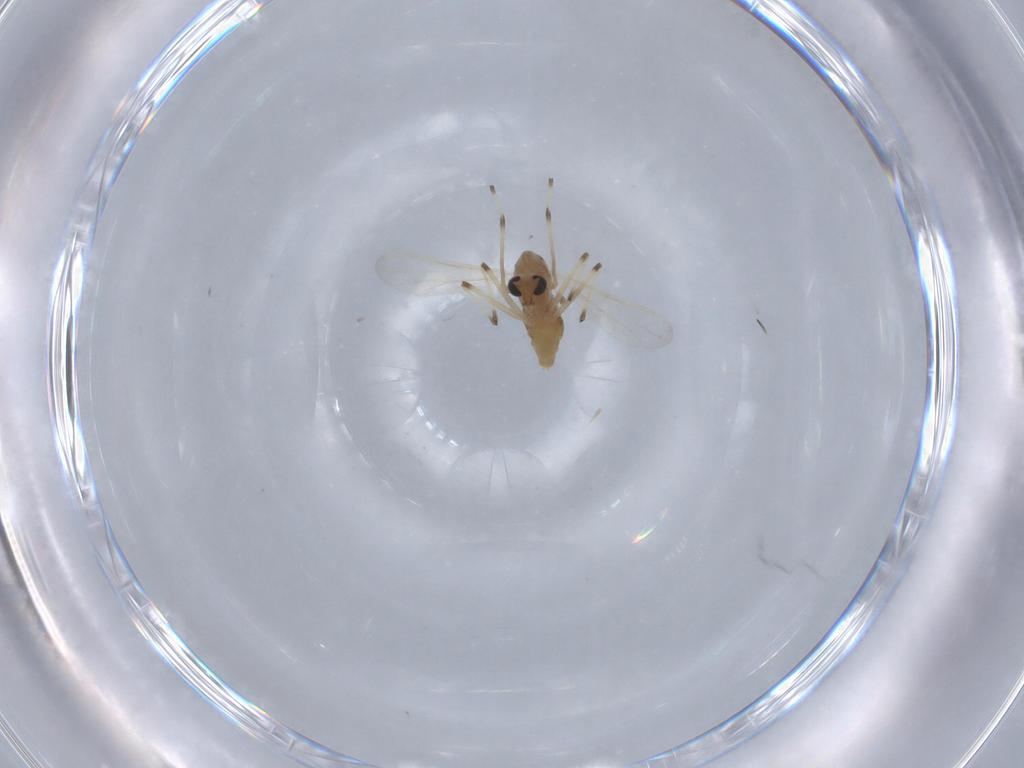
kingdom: Animalia
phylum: Arthropoda
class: Insecta
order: Diptera
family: Chironomidae
